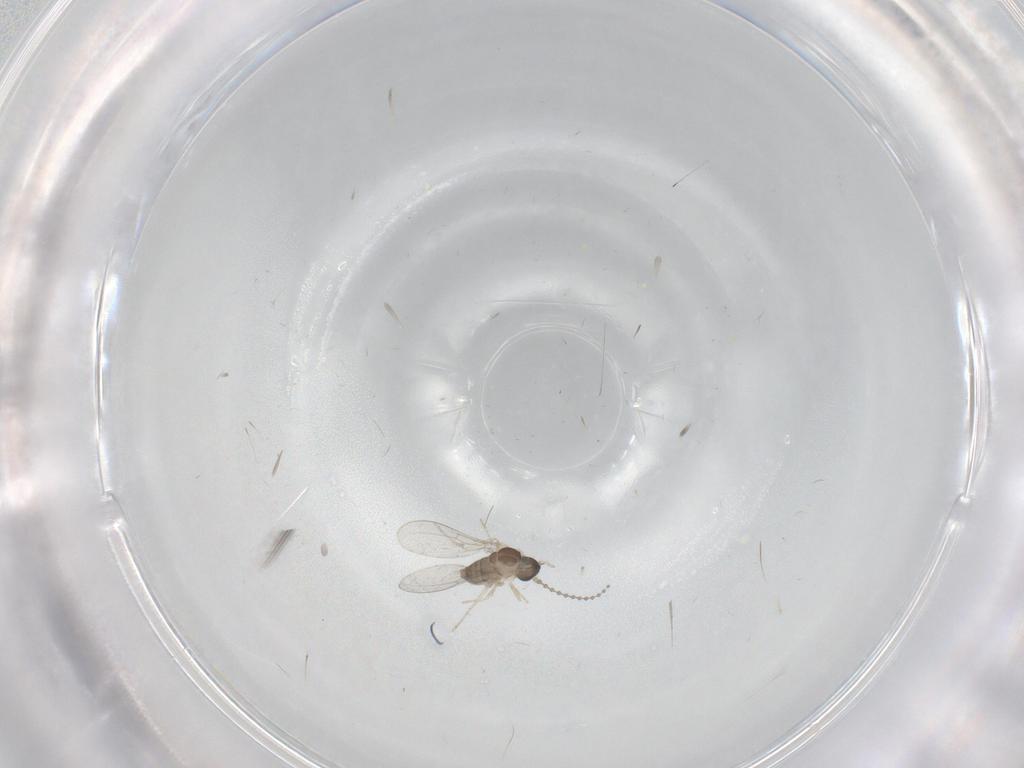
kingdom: Animalia
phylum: Arthropoda
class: Insecta
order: Diptera
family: Cecidomyiidae
